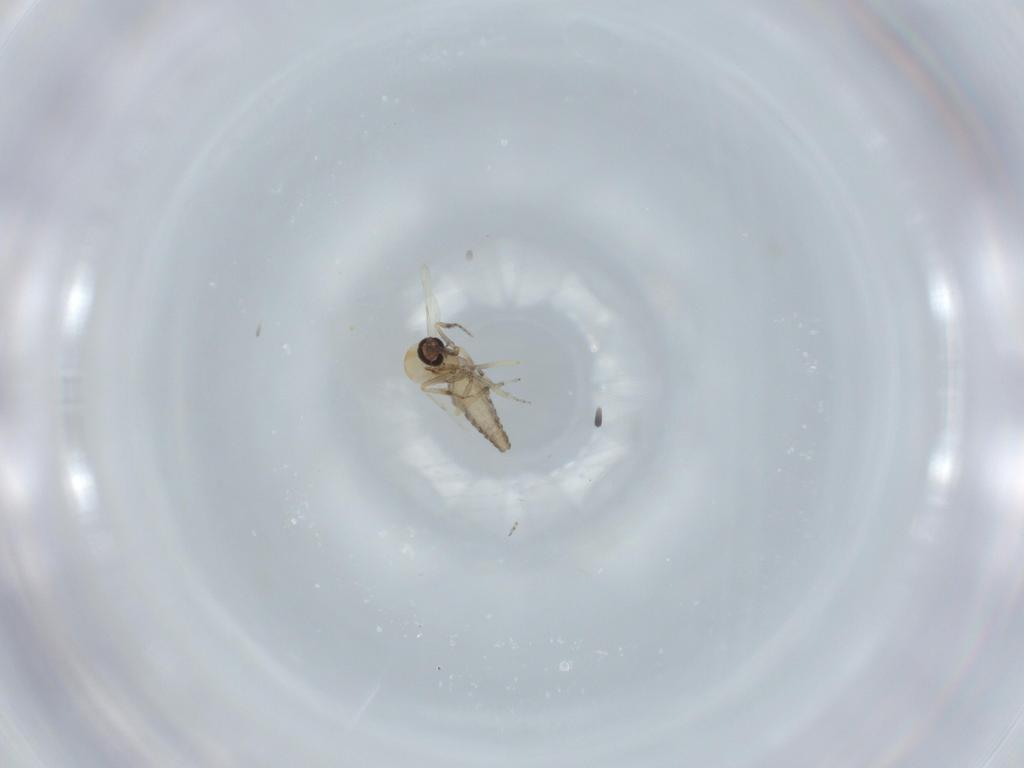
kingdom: Animalia
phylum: Arthropoda
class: Insecta
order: Diptera
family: Ceratopogonidae
